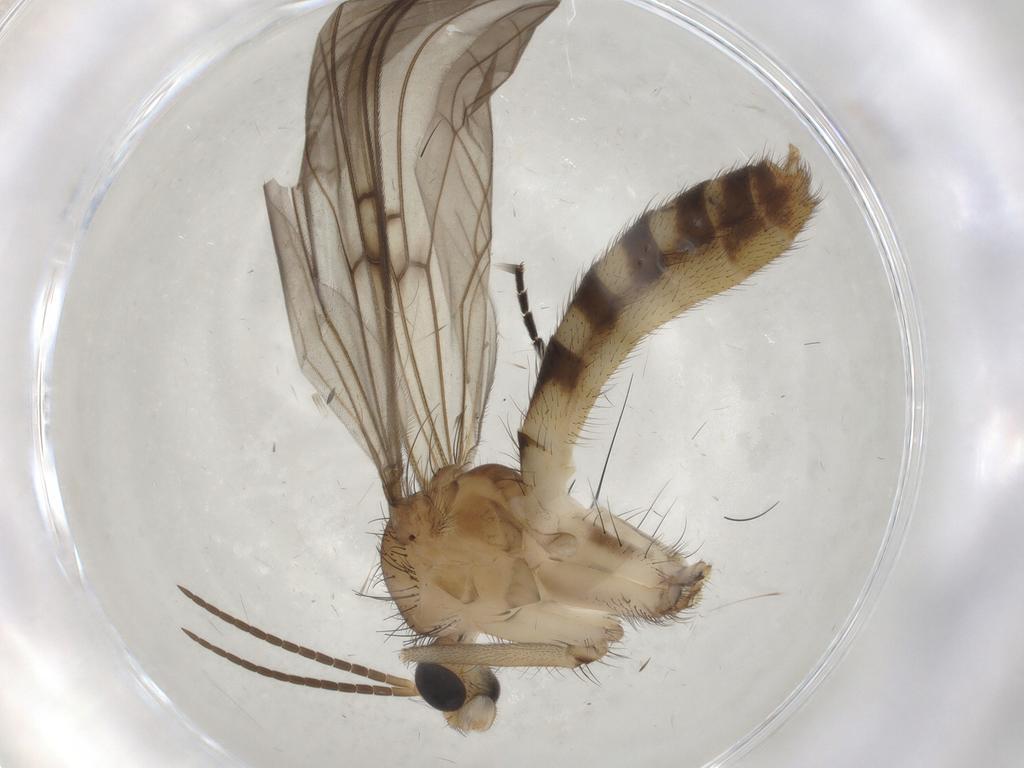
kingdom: Animalia
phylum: Arthropoda
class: Insecta
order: Diptera
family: Mycetophilidae
